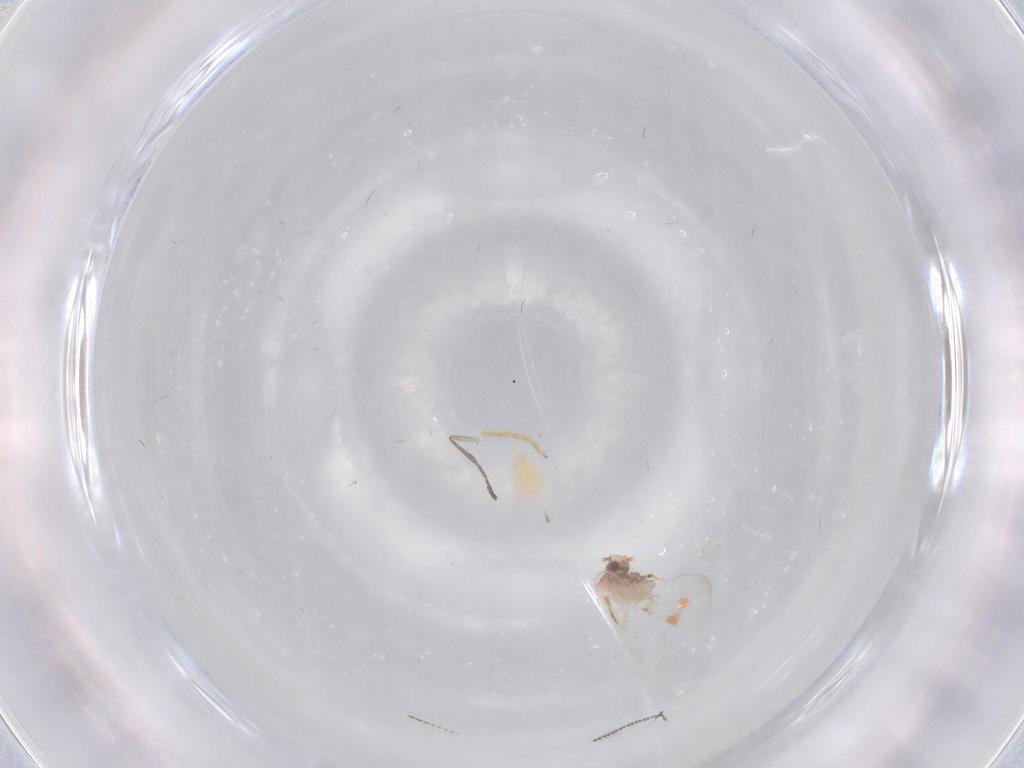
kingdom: Animalia
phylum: Arthropoda
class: Insecta
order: Hemiptera
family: Aleyrodidae
